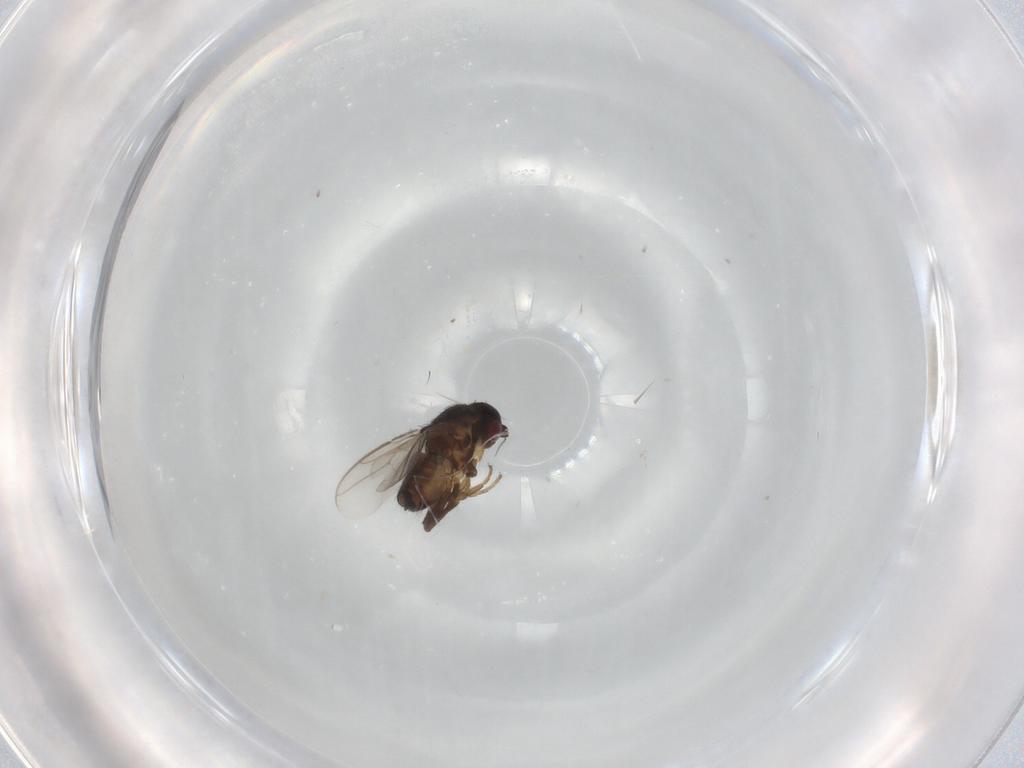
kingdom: Animalia
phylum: Arthropoda
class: Insecta
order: Diptera
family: Sphaeroceridae
